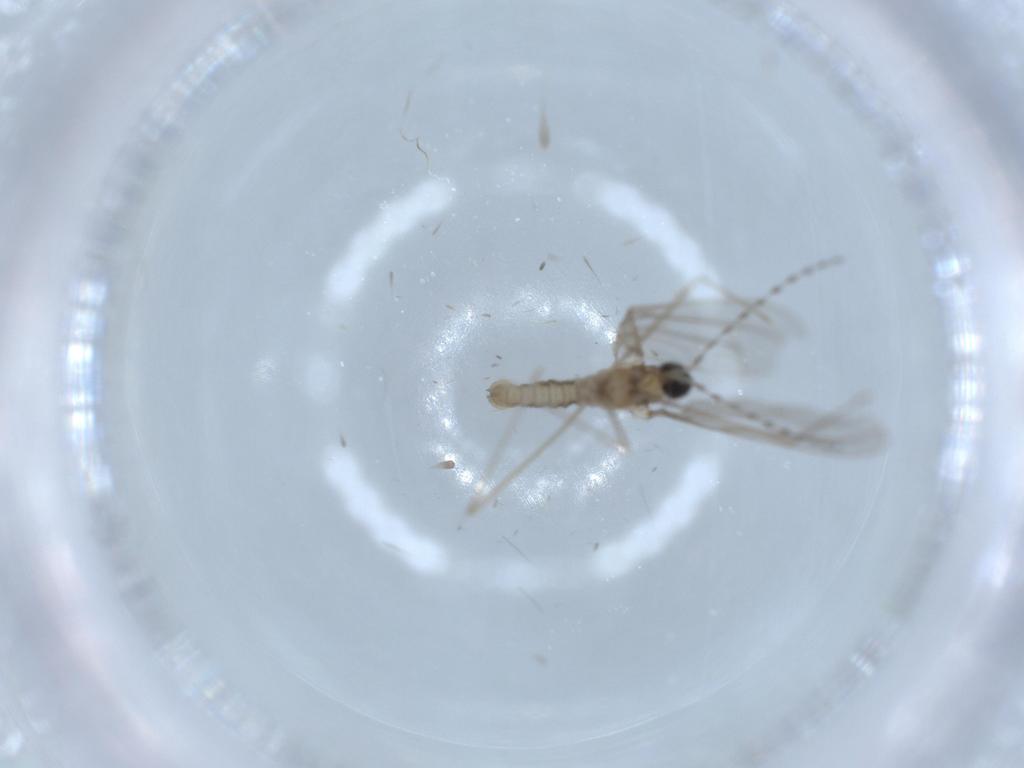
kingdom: Animalia
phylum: Arthropoda
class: Insecta
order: Diptera
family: Cecidomyiidae
